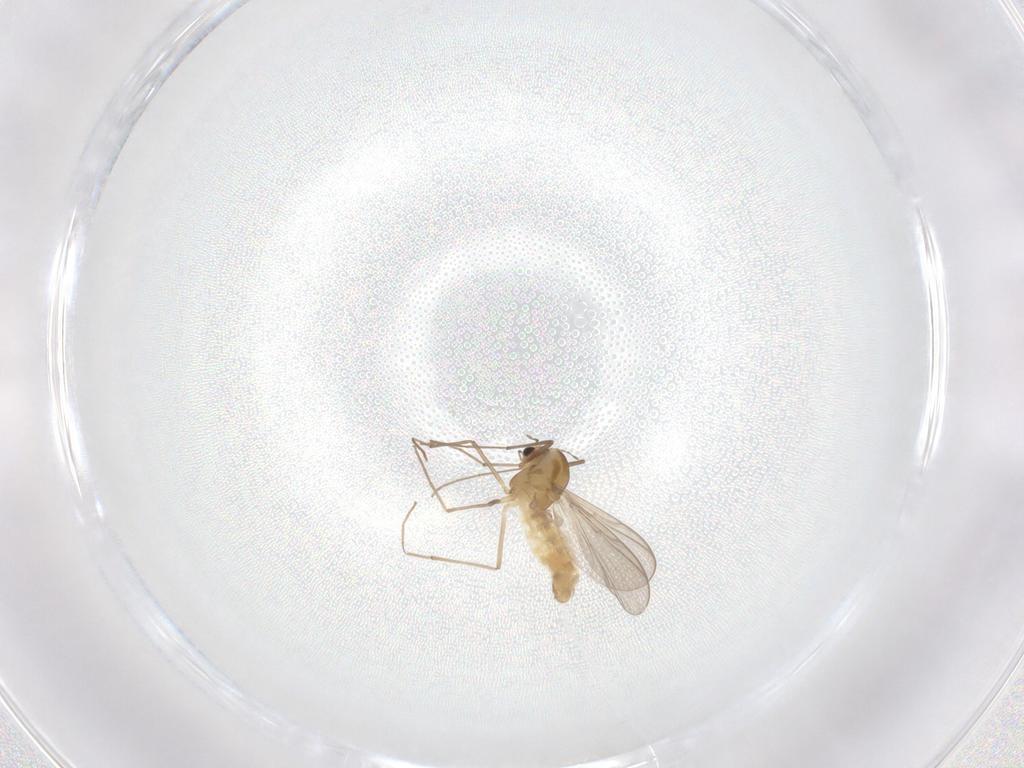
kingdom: Animalia
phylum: Arthropoda
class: Insecta
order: Diptera
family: Chironomidae
